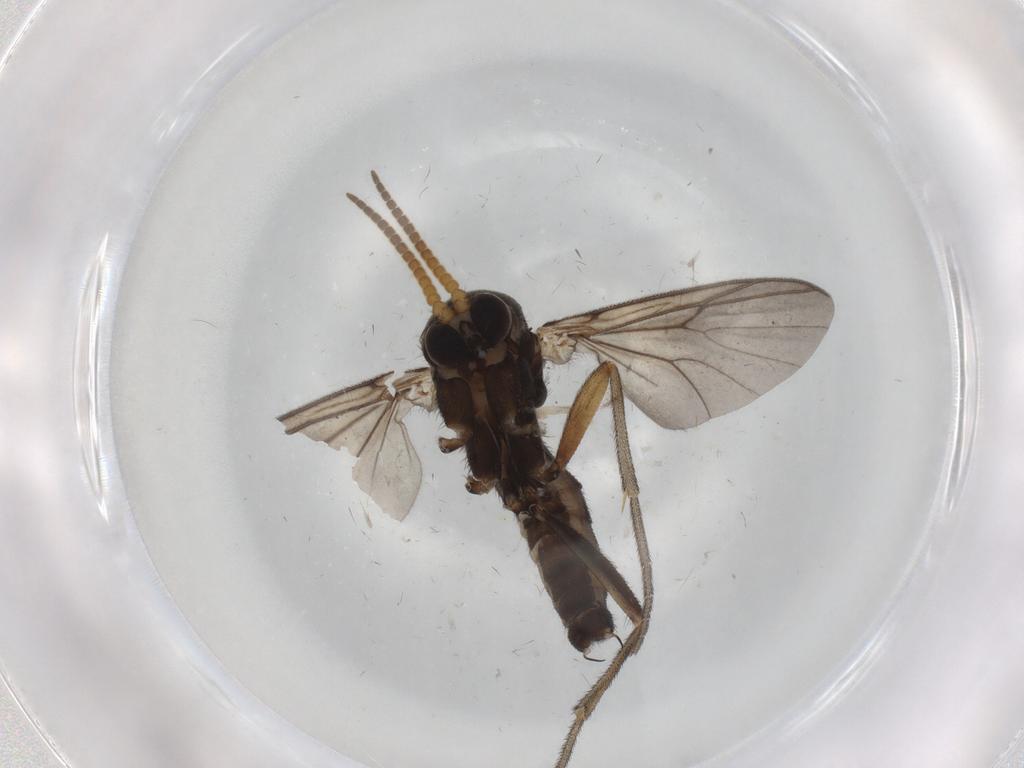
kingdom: Animalia
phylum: Arthropoda
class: Insecta
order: Diptera
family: Mycetophilidae
